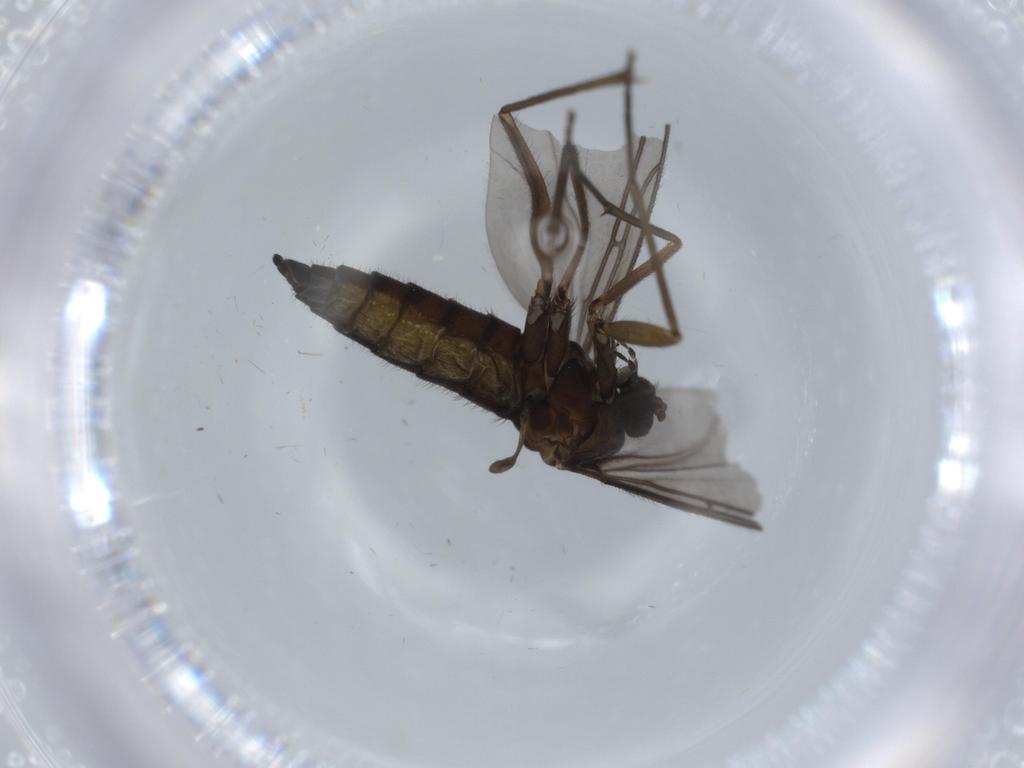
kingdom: Animalia
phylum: Arthropoda
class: Insecta
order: Diptera
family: Sciaridae
